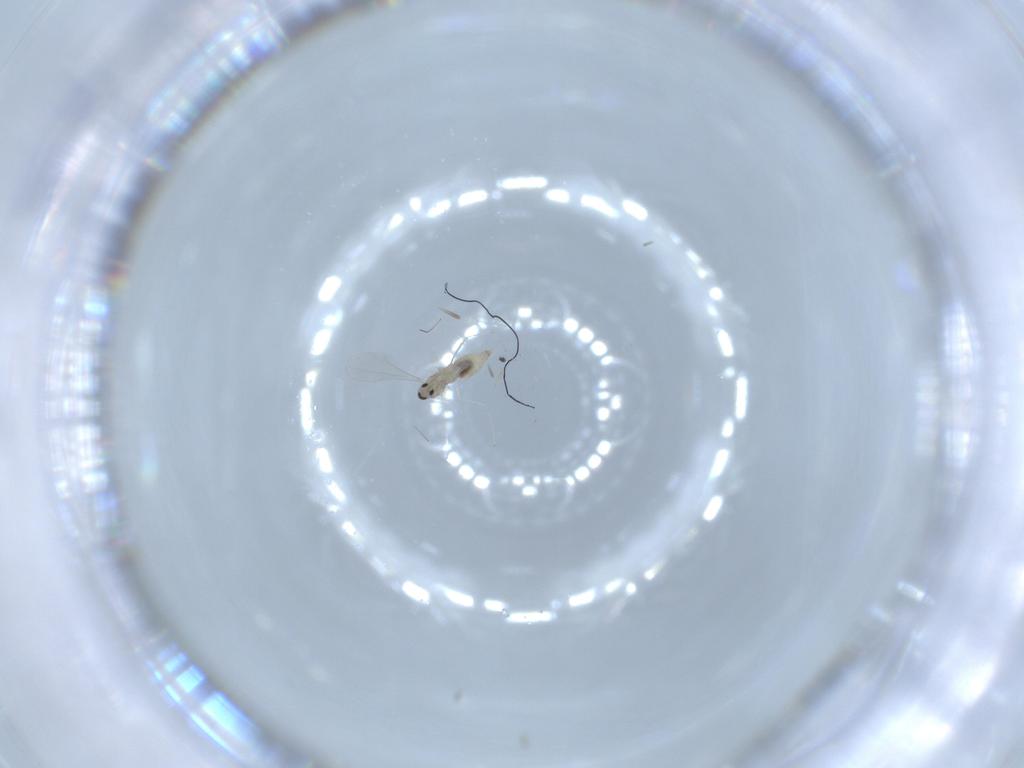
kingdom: Animalia
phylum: Arthropoda
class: Insecta
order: Diptera
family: Cecidomyiidae
